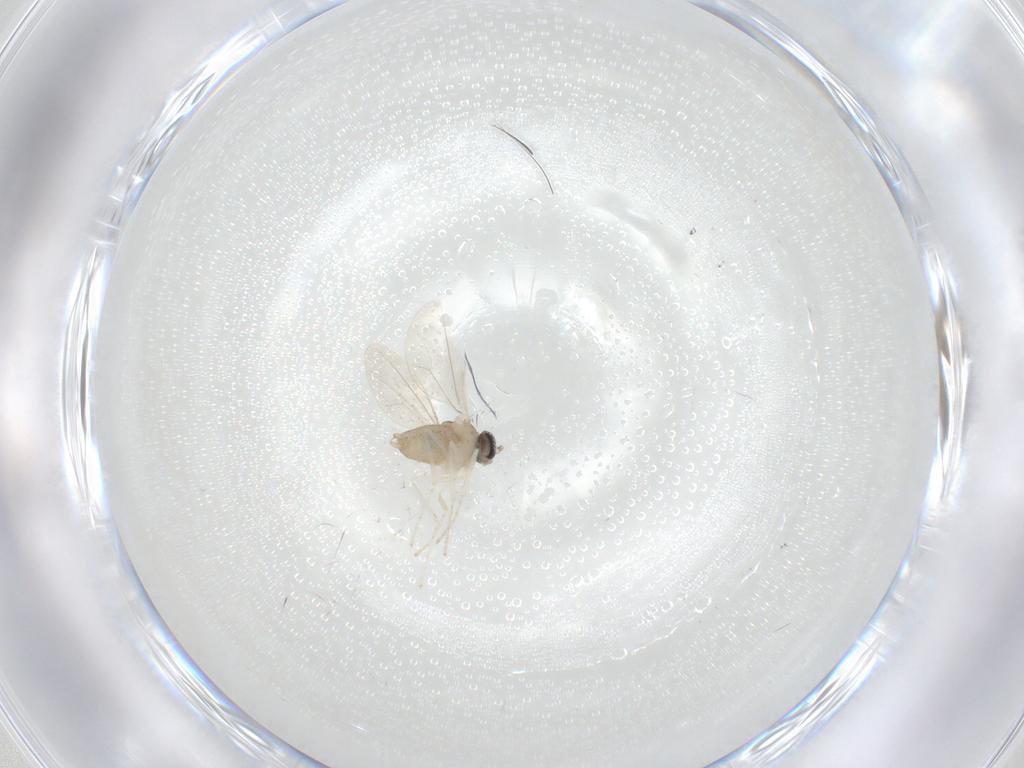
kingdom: Animalia
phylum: Arthropoda
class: Insecta
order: Diptera
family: Cecidomyiidae
